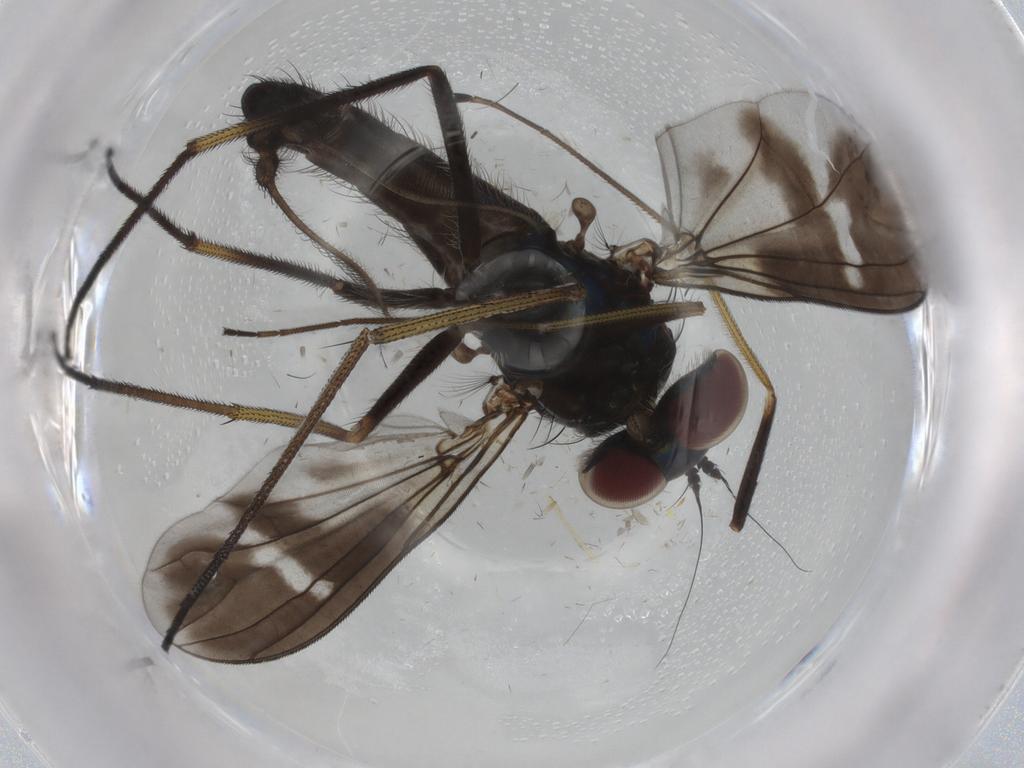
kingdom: Animalia
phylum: Arthropoda
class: Insecta
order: Diptera
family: Dolichopodidae
